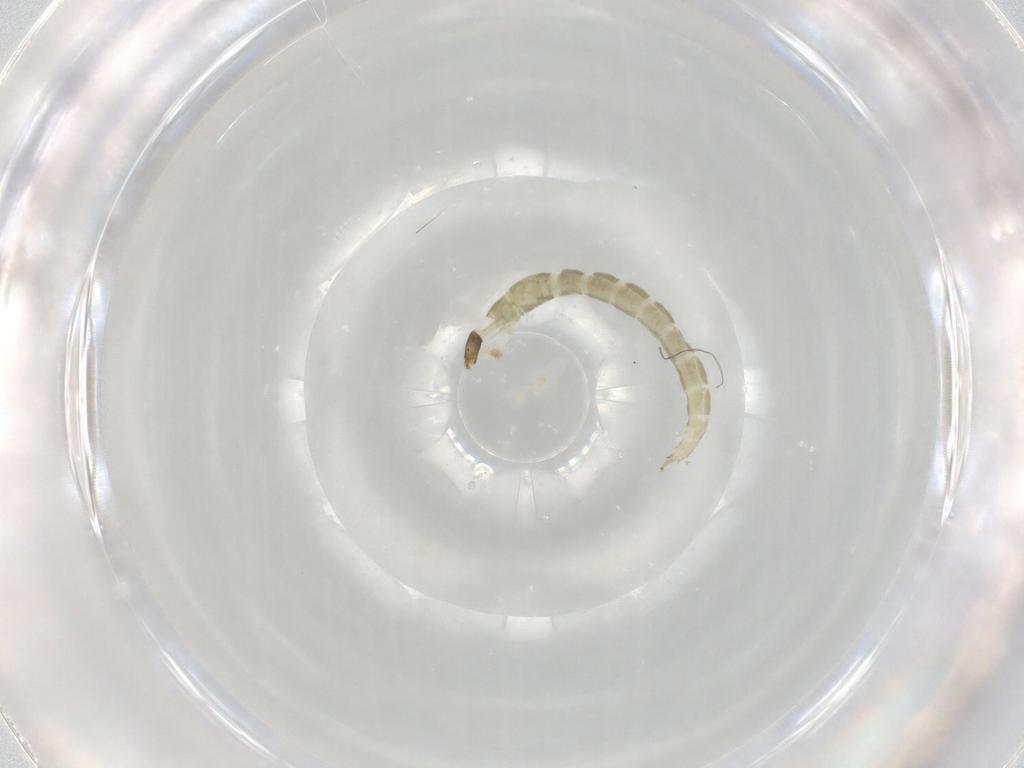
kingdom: Animalia
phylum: Arthropoda
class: Insecta
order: Diptera
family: Chironomidae
